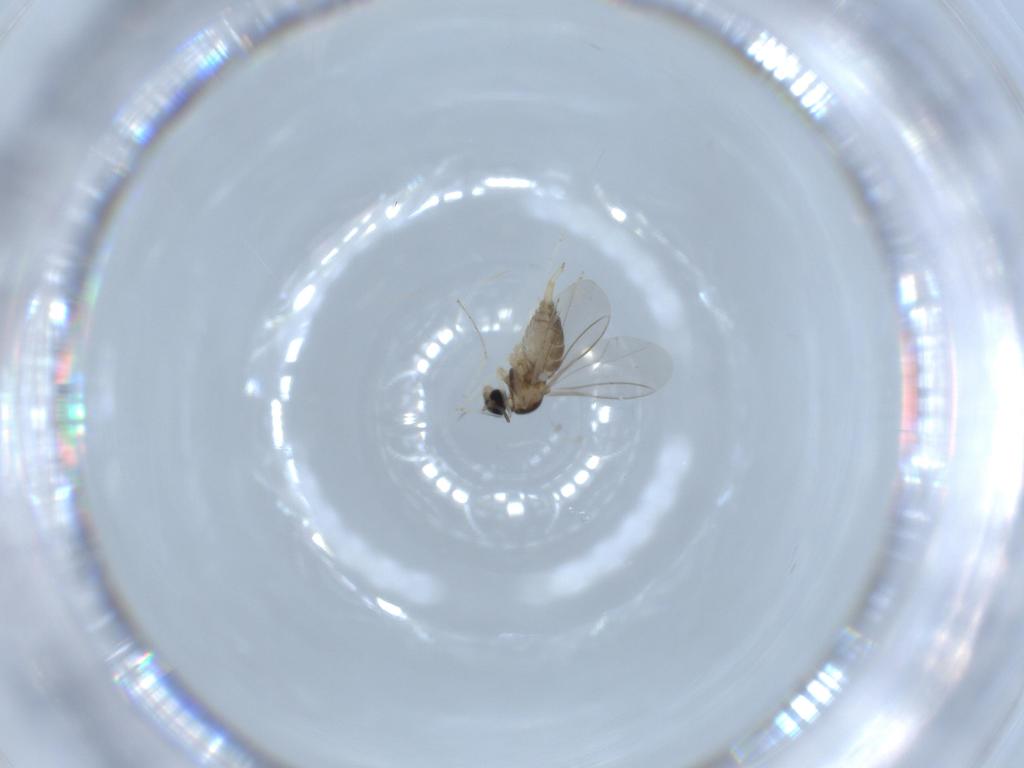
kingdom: Animalia
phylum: Arthropoda
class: Insecta
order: Diptera
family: Cecidomyiidae
